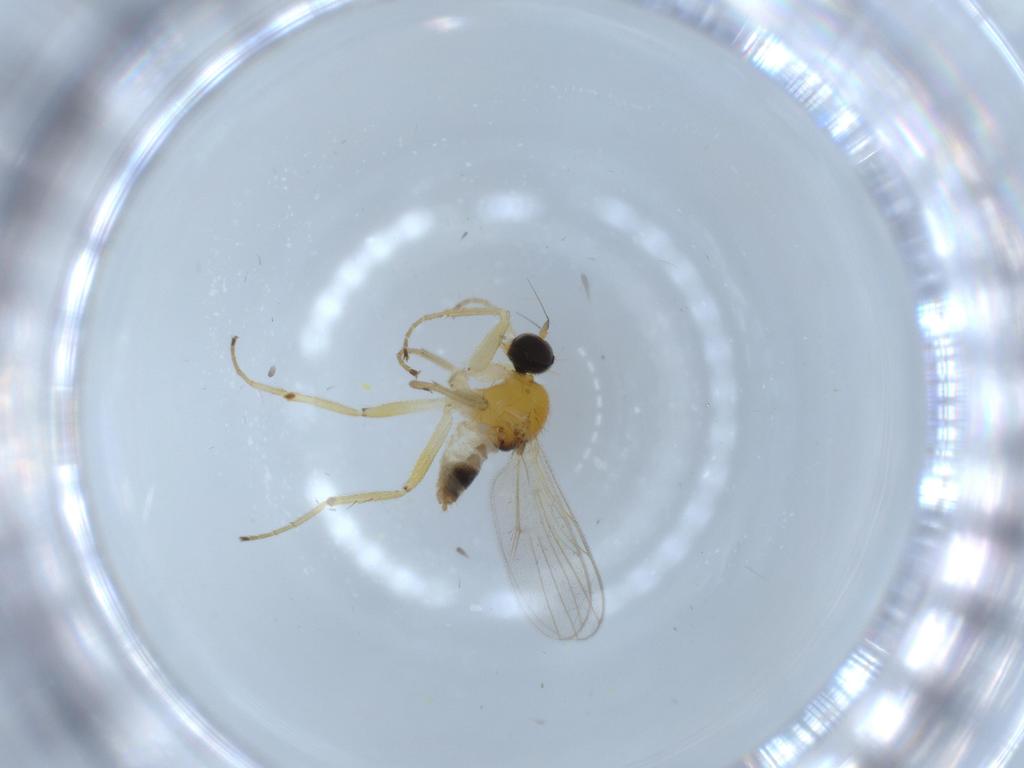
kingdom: Animalia
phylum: Arthropoda
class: Insecta
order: Diptera
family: Hybotidae
